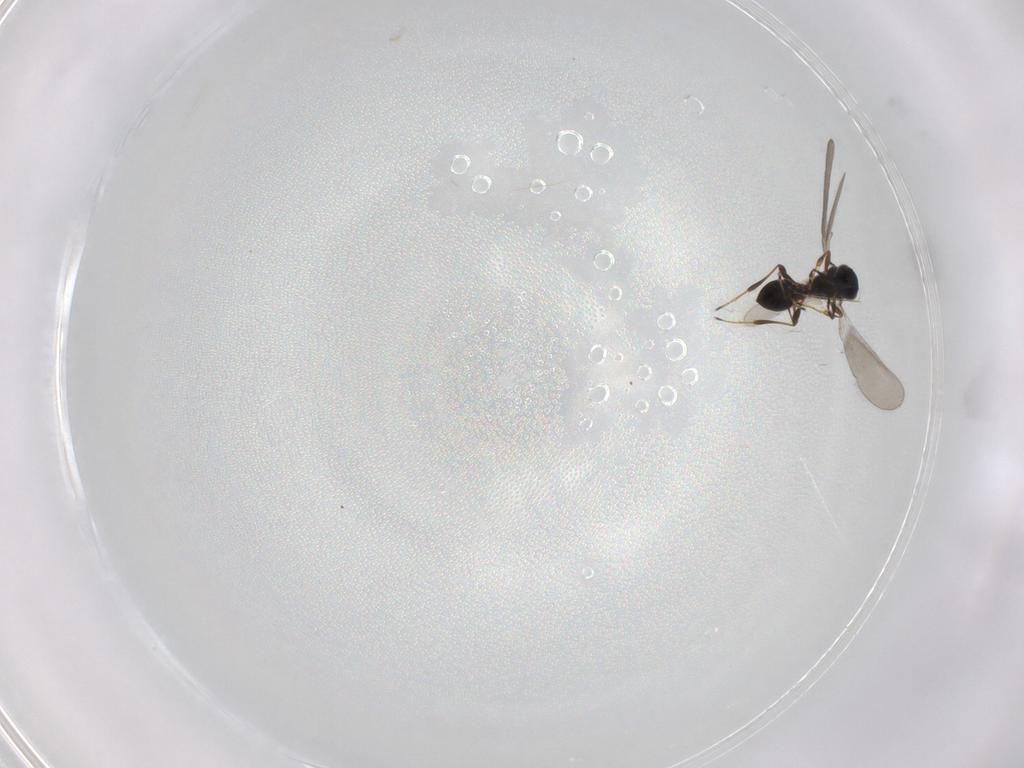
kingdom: Animalia
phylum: Arthropoda
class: Insecta
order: Hymenoptera
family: Platygastridae
